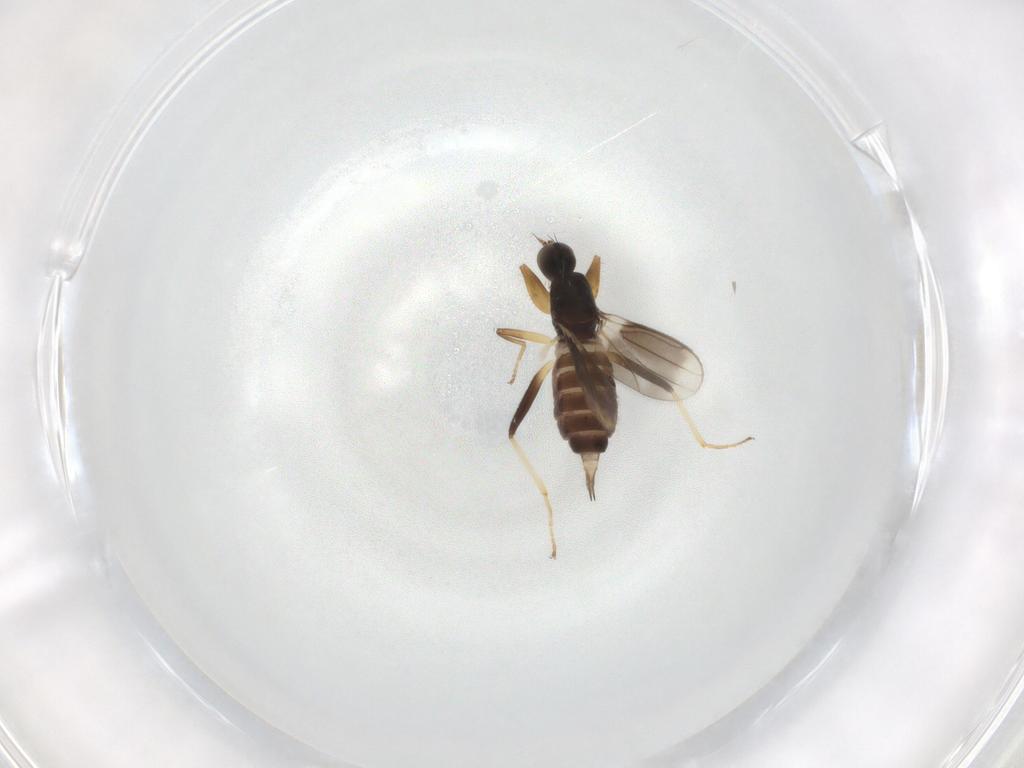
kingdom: Animalia
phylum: Arthropoda
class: Insecta
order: Diptera
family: Hybotidae
